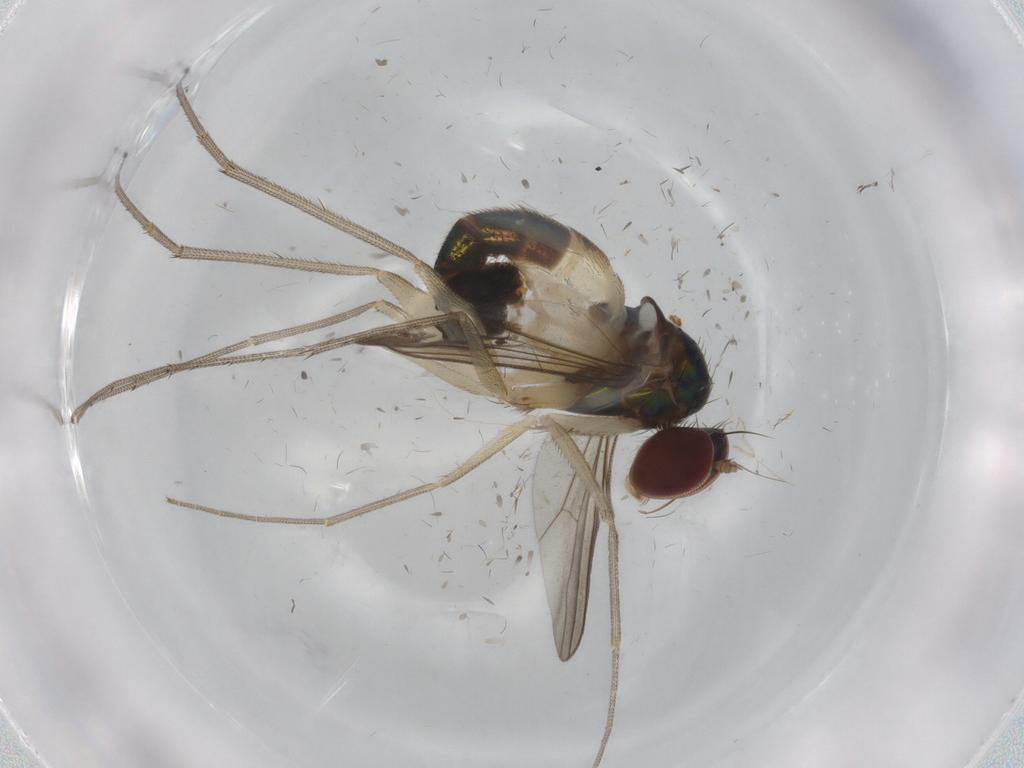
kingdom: Animalia
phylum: Arthropoda
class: Insecta
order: Diptera
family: Dolichopodidae
